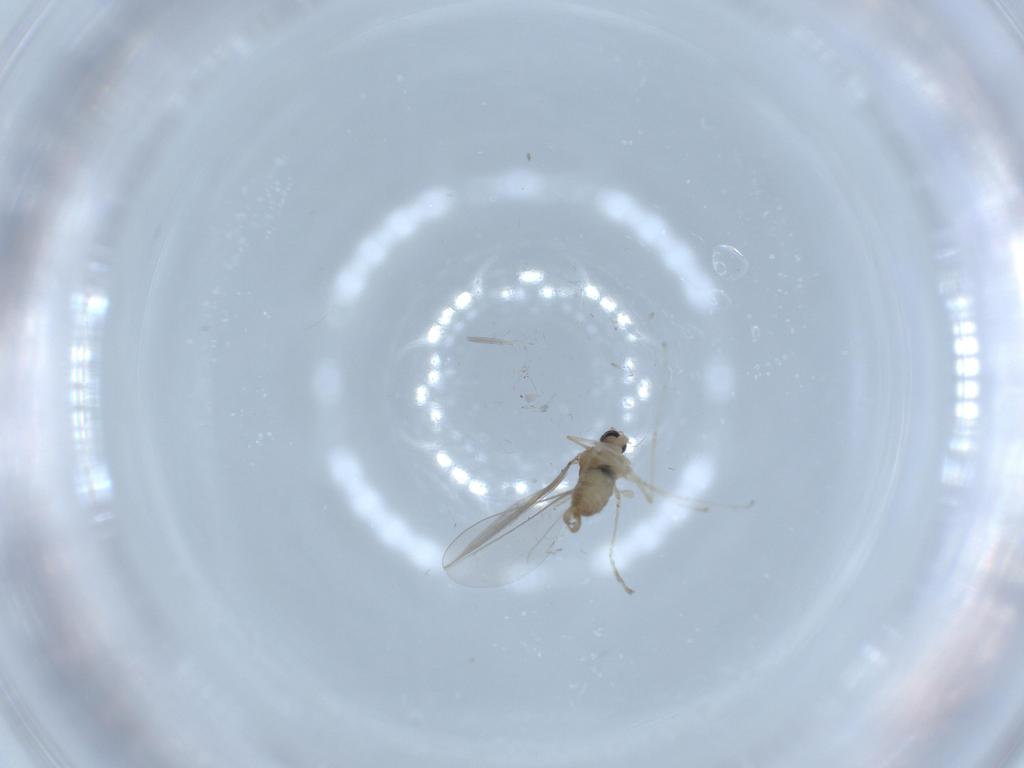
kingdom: Animalia
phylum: Arthropoda
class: Insecta
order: Diptera
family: Cecidomyiidae
